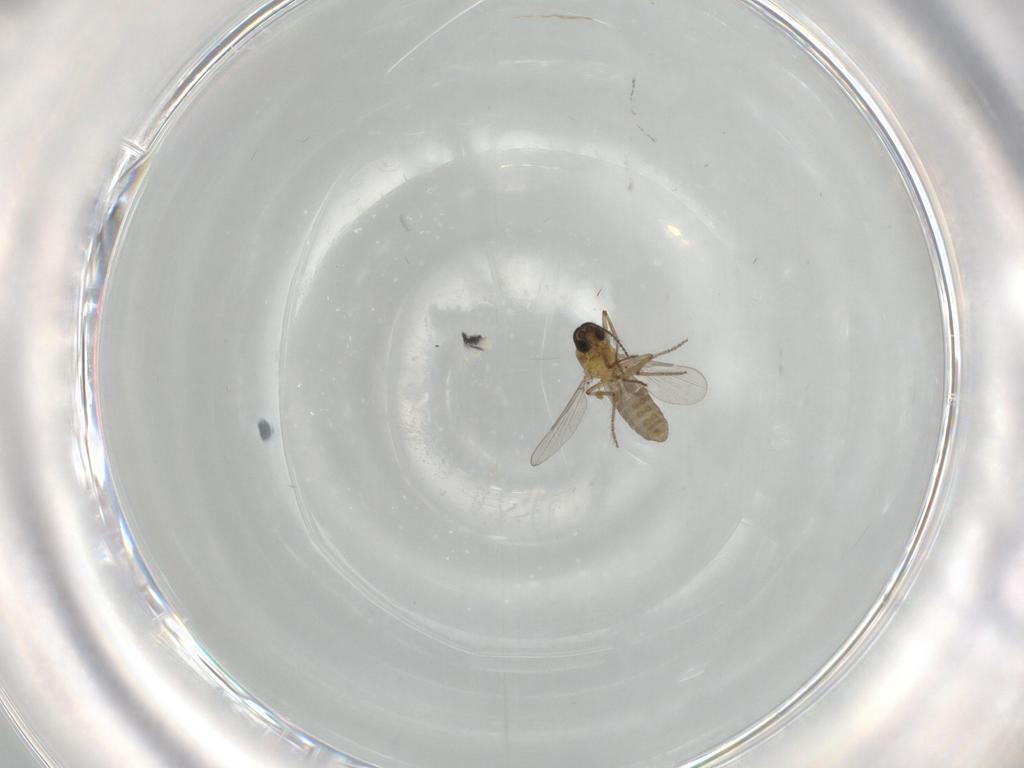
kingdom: Animalia
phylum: Arthropoda
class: Insecta
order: Diptera
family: Ceratopogonidae
